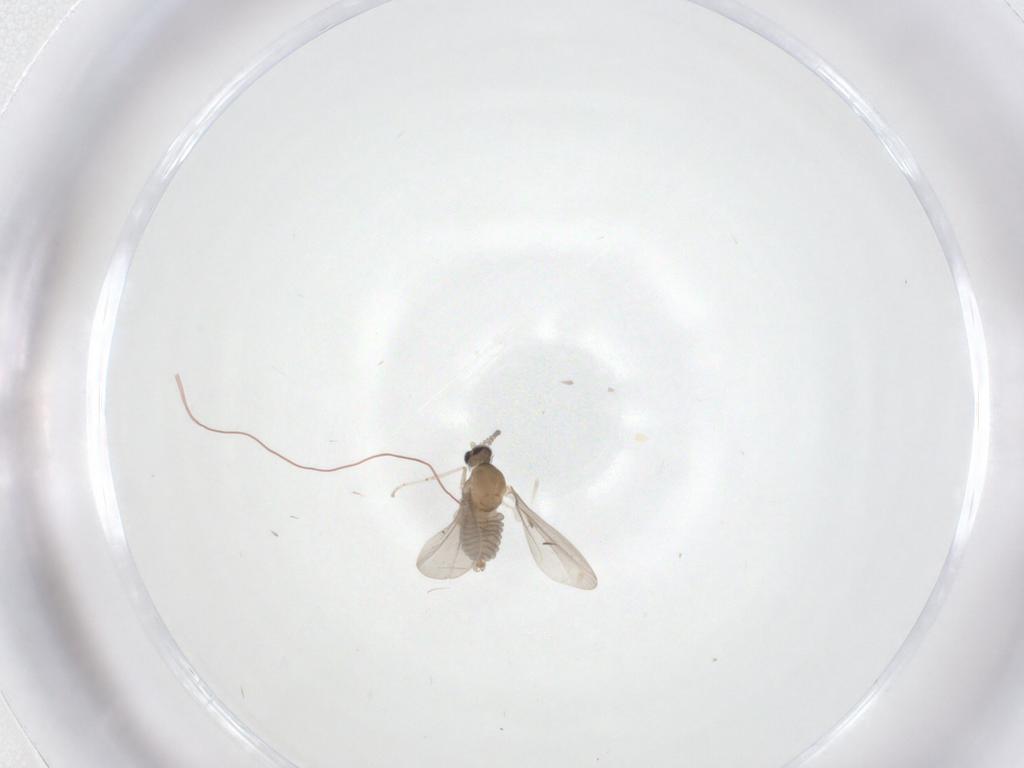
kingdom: Animalia
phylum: Arthropoda
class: Insecta
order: Diptera
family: Cecidomyiidae
